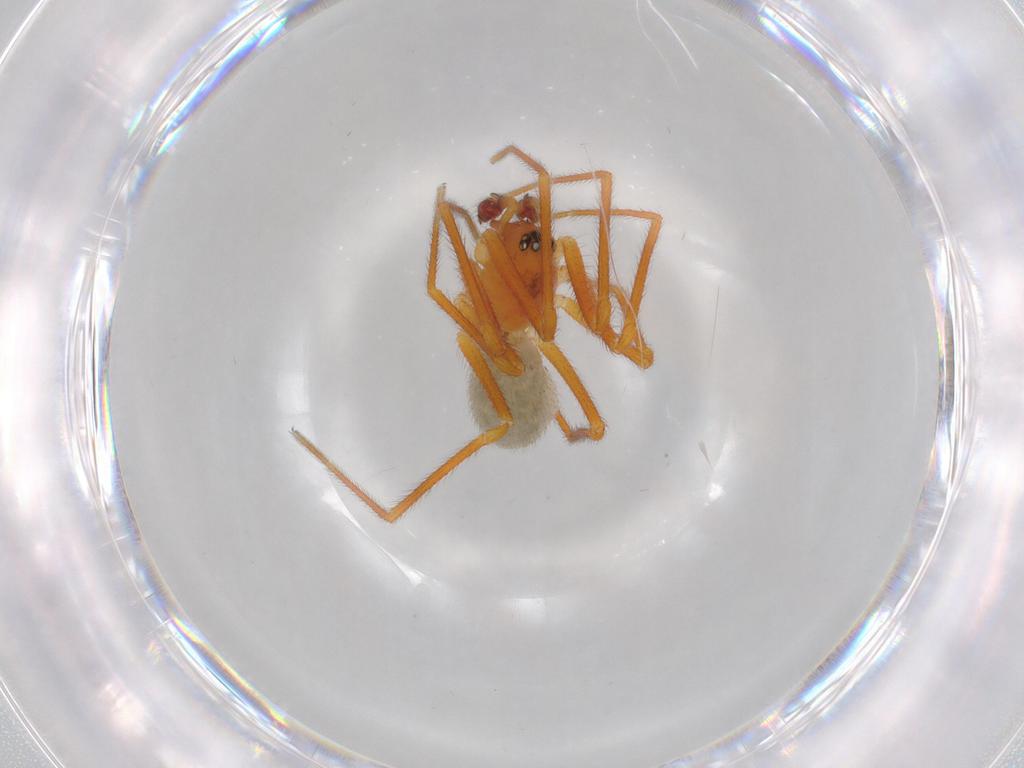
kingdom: Animalia
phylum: Arthropoda
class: Arachnida
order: Araneae
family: Linyphiidae
